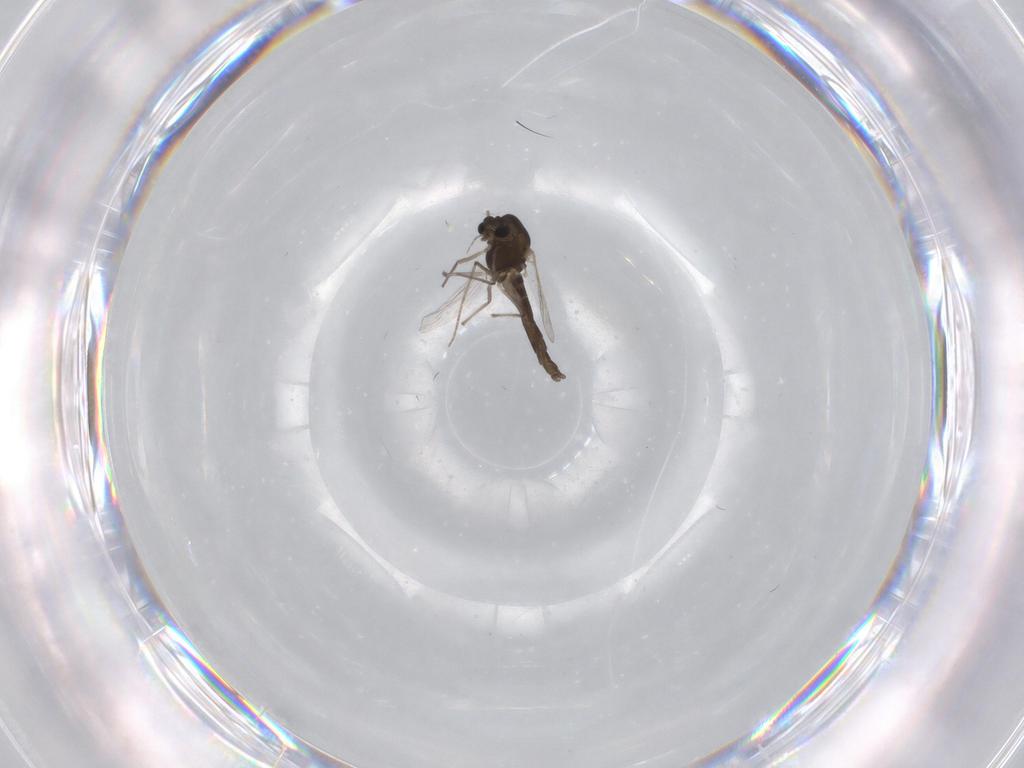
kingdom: Animalia
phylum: Arthropoda
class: Insecta
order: Diptera
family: Chironomidae
